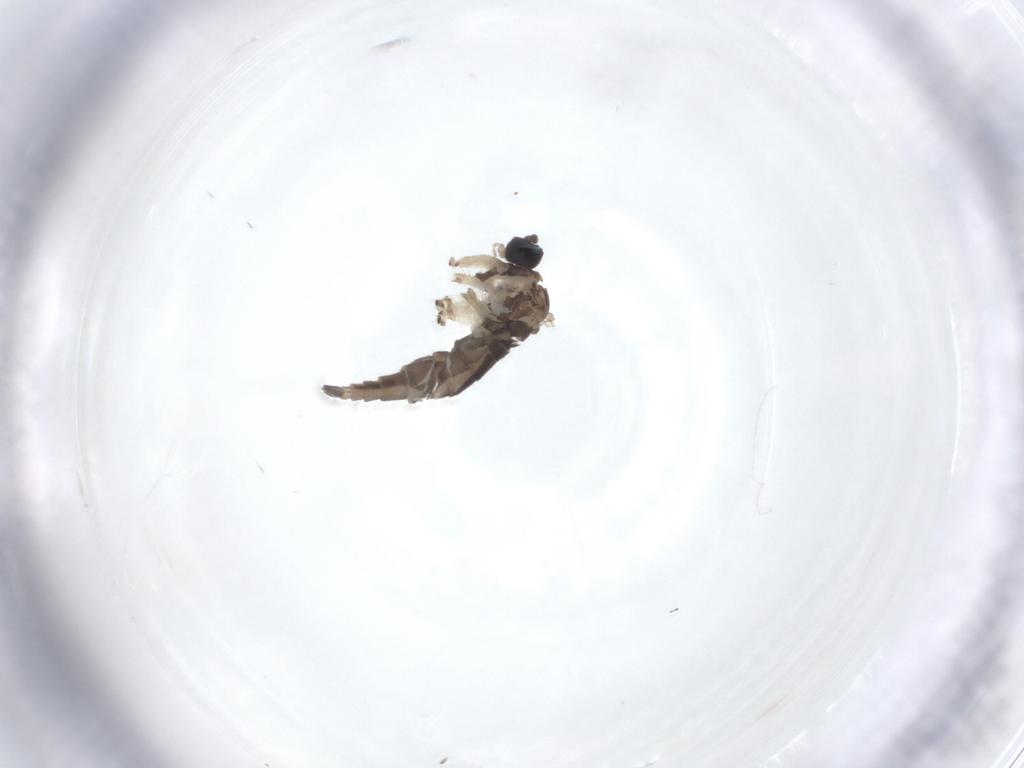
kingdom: Animalia
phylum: Arthropoda
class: Insecta
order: Diptera
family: Sciaridae
